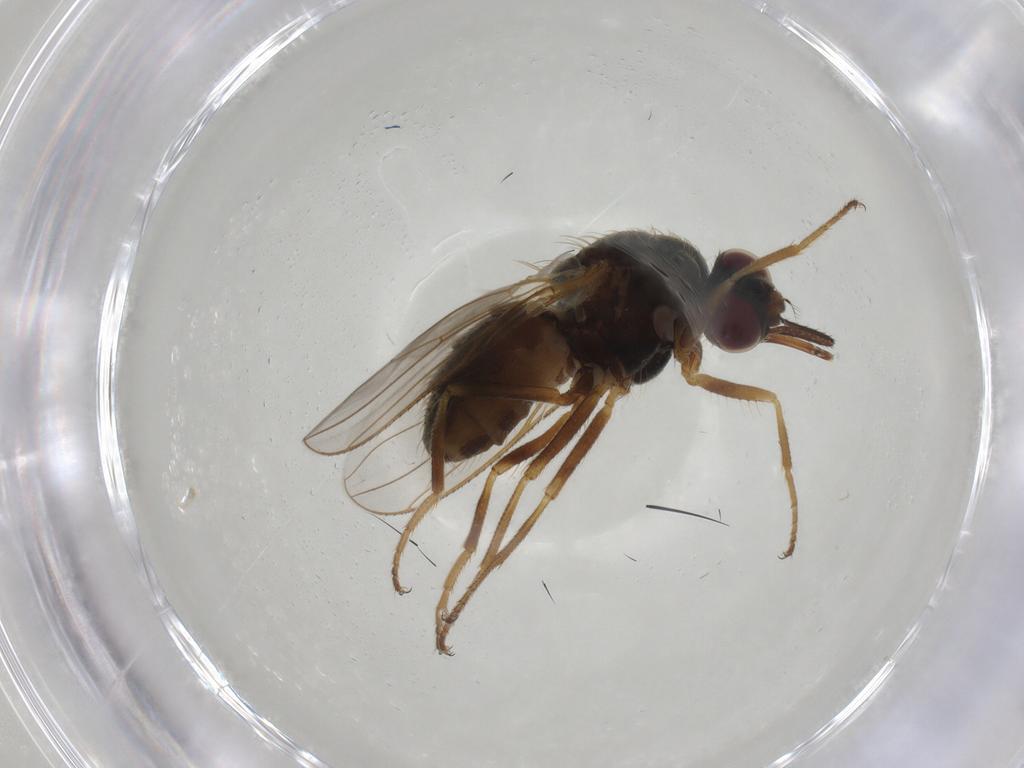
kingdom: Animalia
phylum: Arthropoda
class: Insecta
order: Diptera
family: Sciaridae
